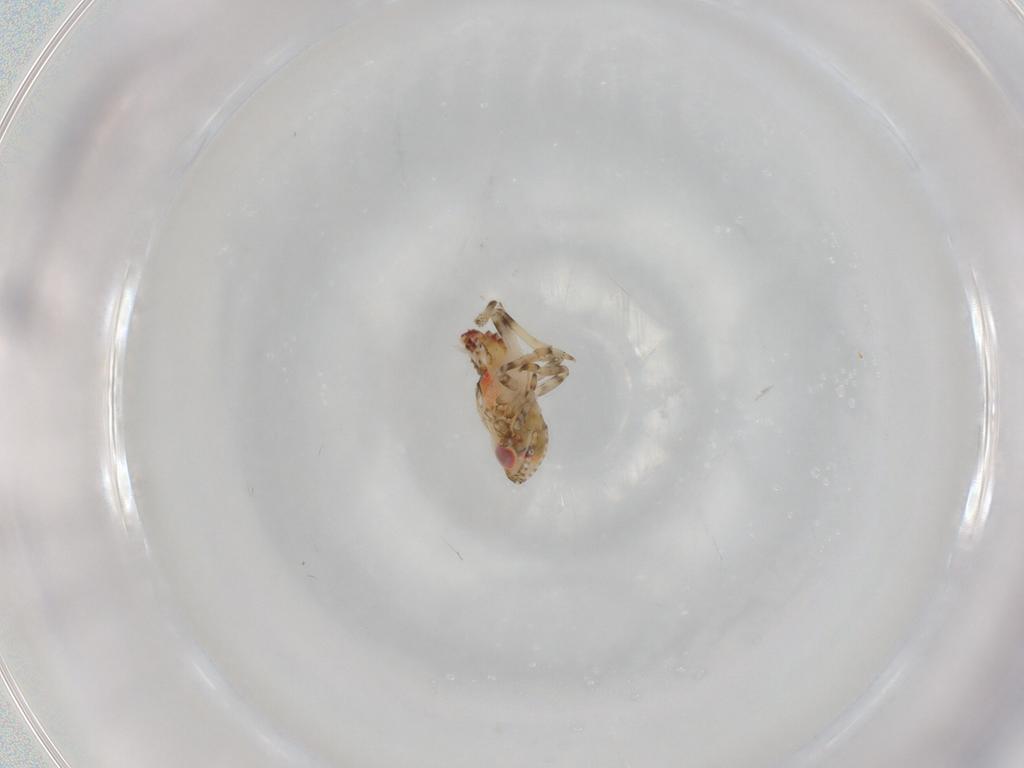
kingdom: Animalia
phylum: Arthropoda
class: Insecta
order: Hemiptera
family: Tropiduchidae
